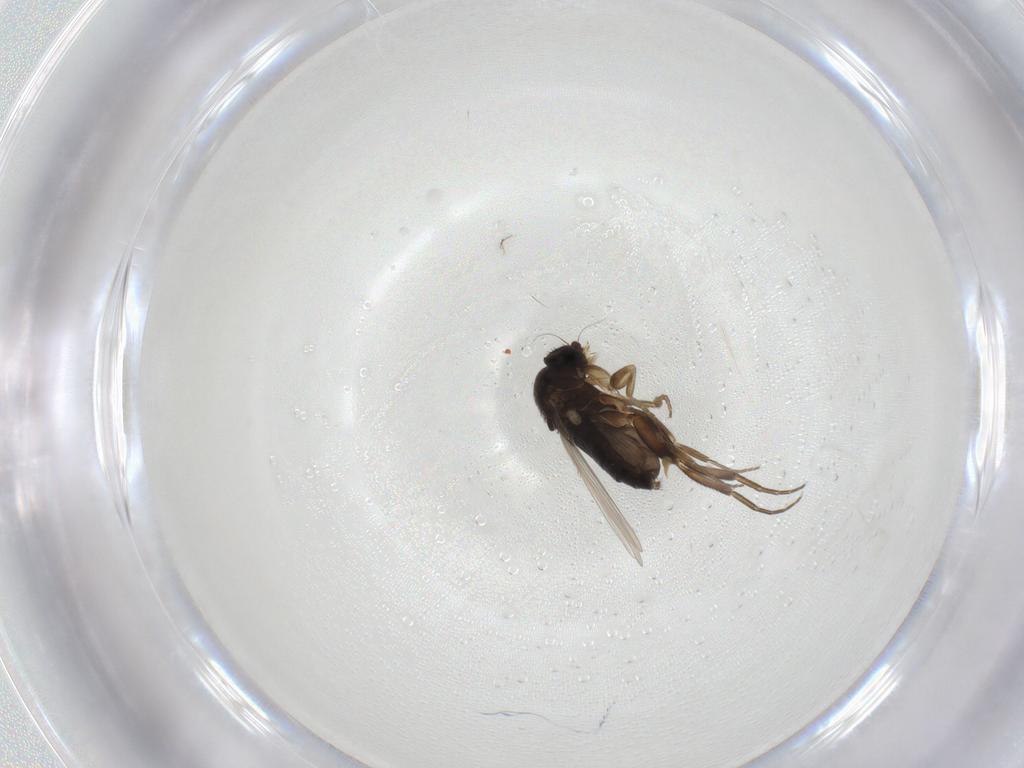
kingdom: Animalia
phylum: Arthropoda
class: Insecta
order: Diptera
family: Phoridae
